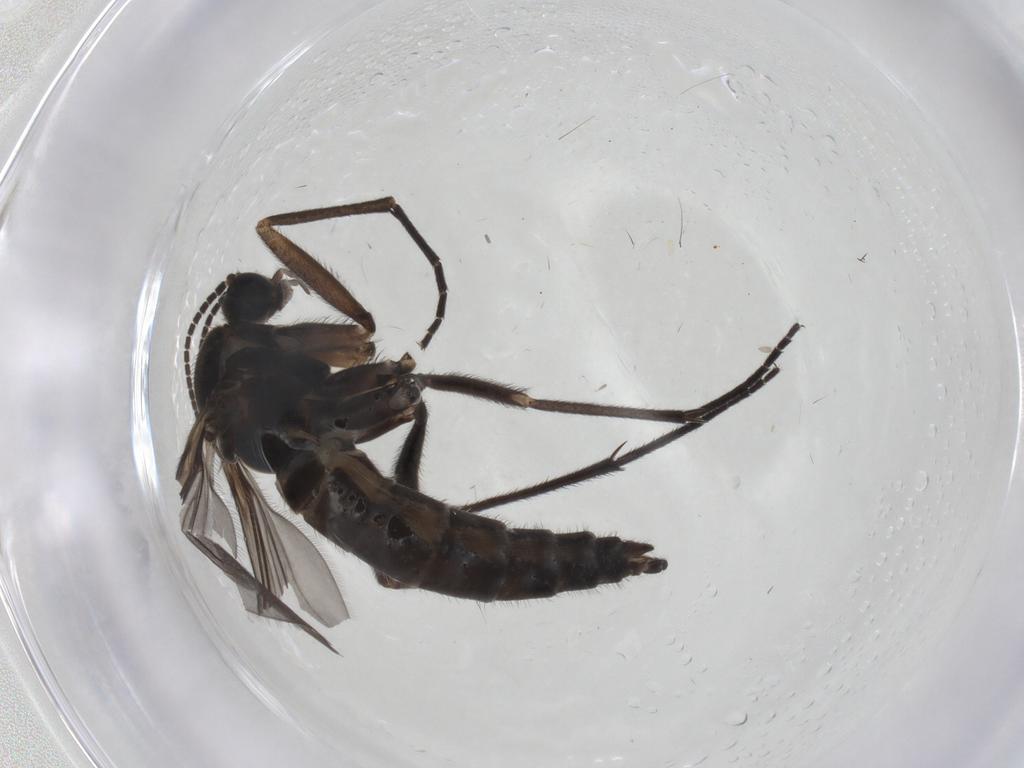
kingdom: Animalia
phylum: Arthropoda
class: Insecta
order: Diptera
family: Sciaridae
